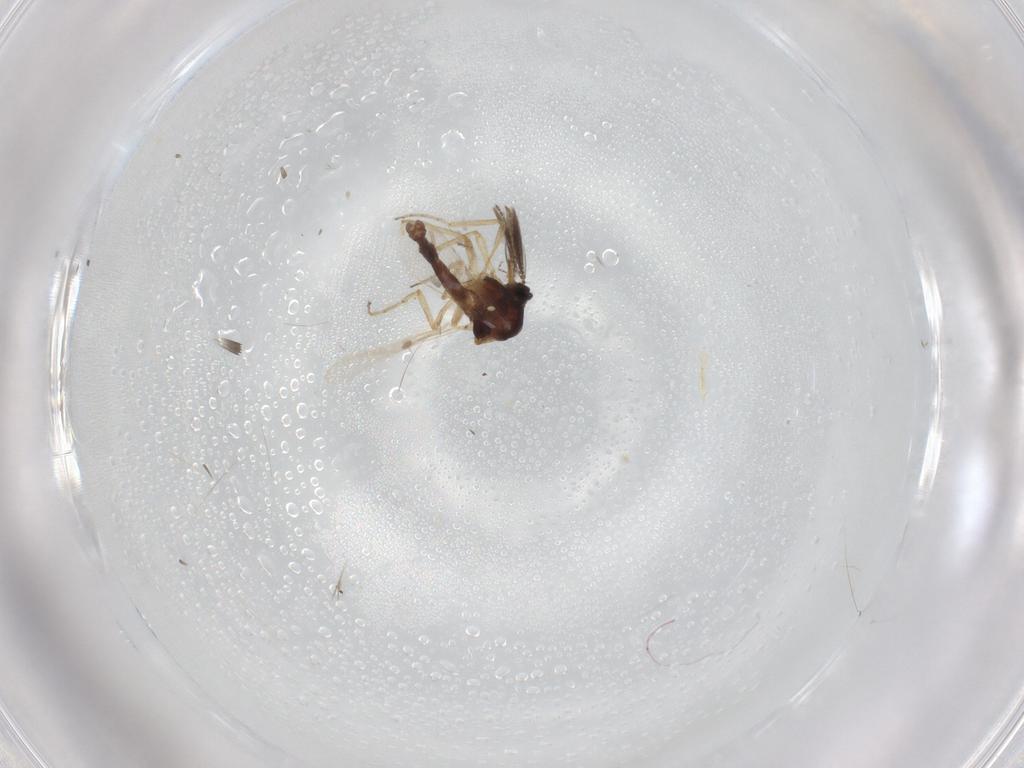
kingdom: Animalia
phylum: Arthropoda
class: Insecta
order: Diptera
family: Ceratopogonidae
